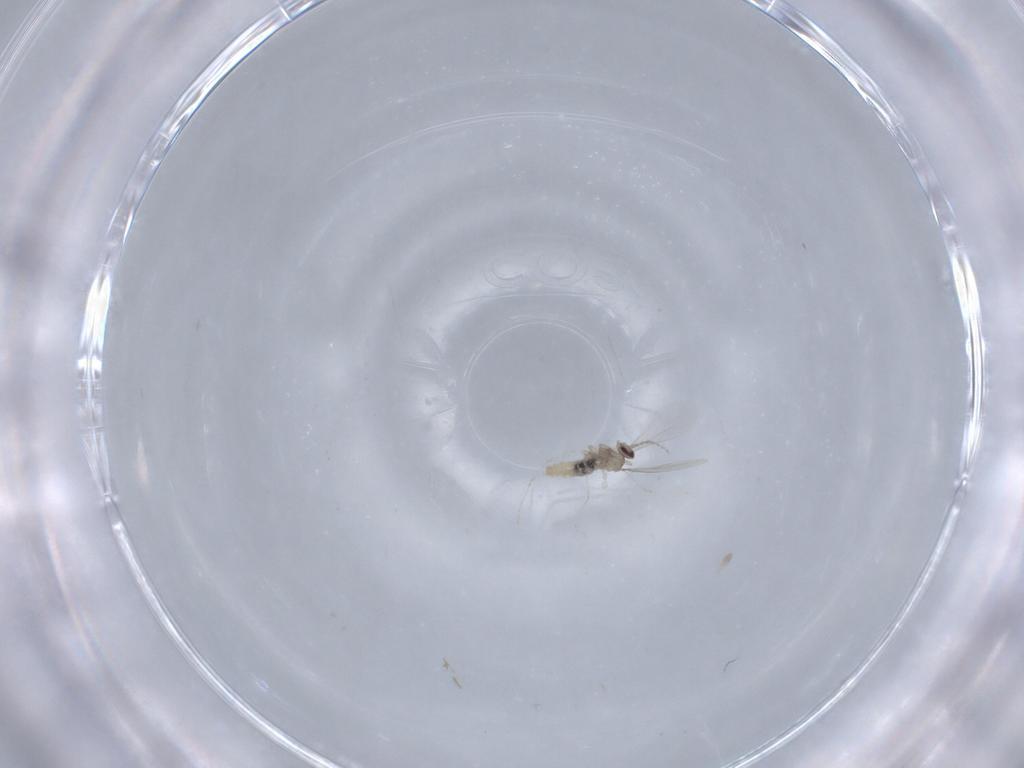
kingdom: Animalia
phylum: Arthropoda
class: Insecta
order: Diptera
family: Cecidomyiidae
